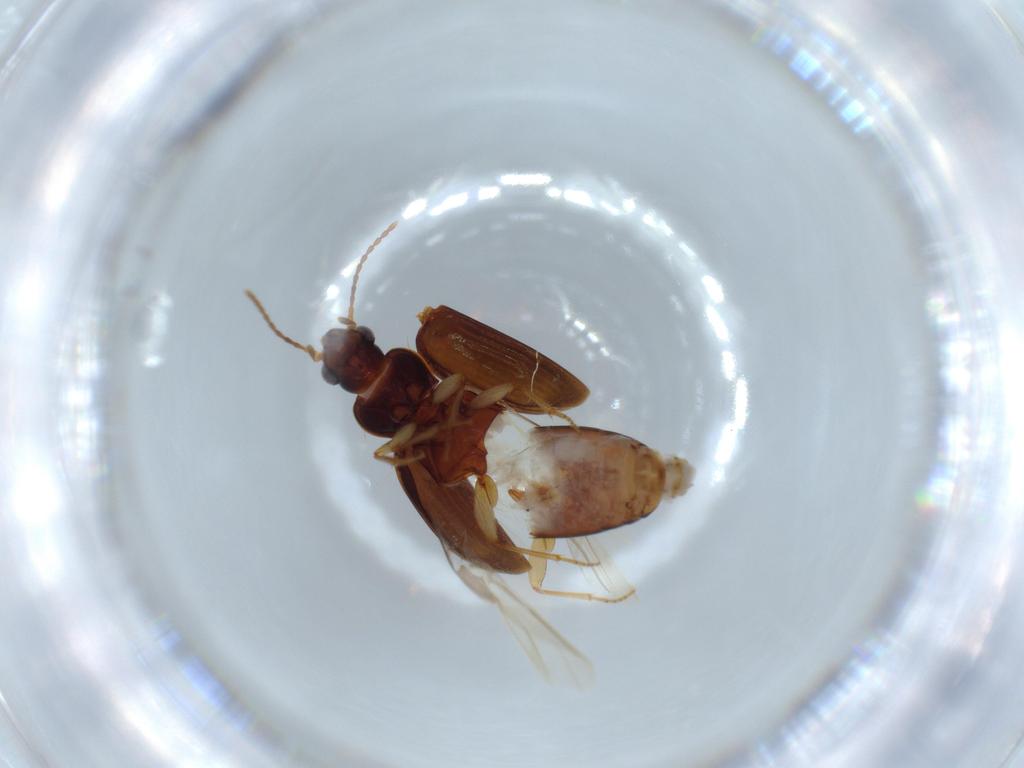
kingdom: Animalia
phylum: Arthropoda
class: Insecta
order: Coleoptera
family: Carabidae
